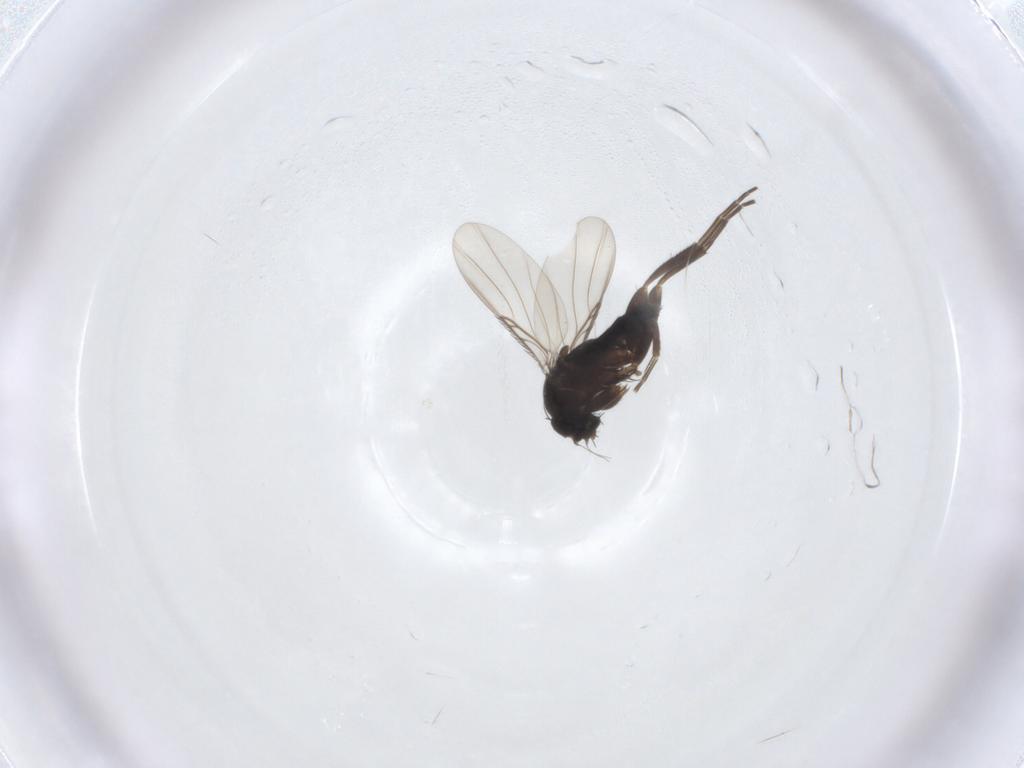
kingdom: Animalia
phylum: Arthropoda
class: Insecta
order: Diptera
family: Phoridae
